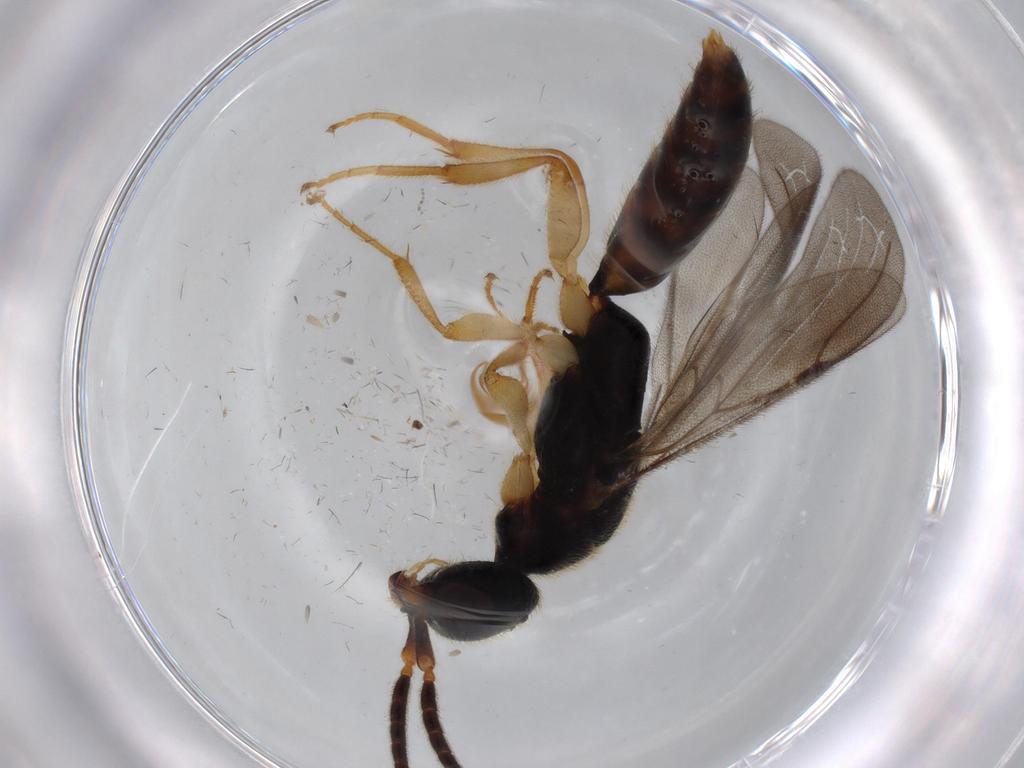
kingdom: Animalia
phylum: Arthropoda
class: Insecta
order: Hymenoptera
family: Bethylidae
